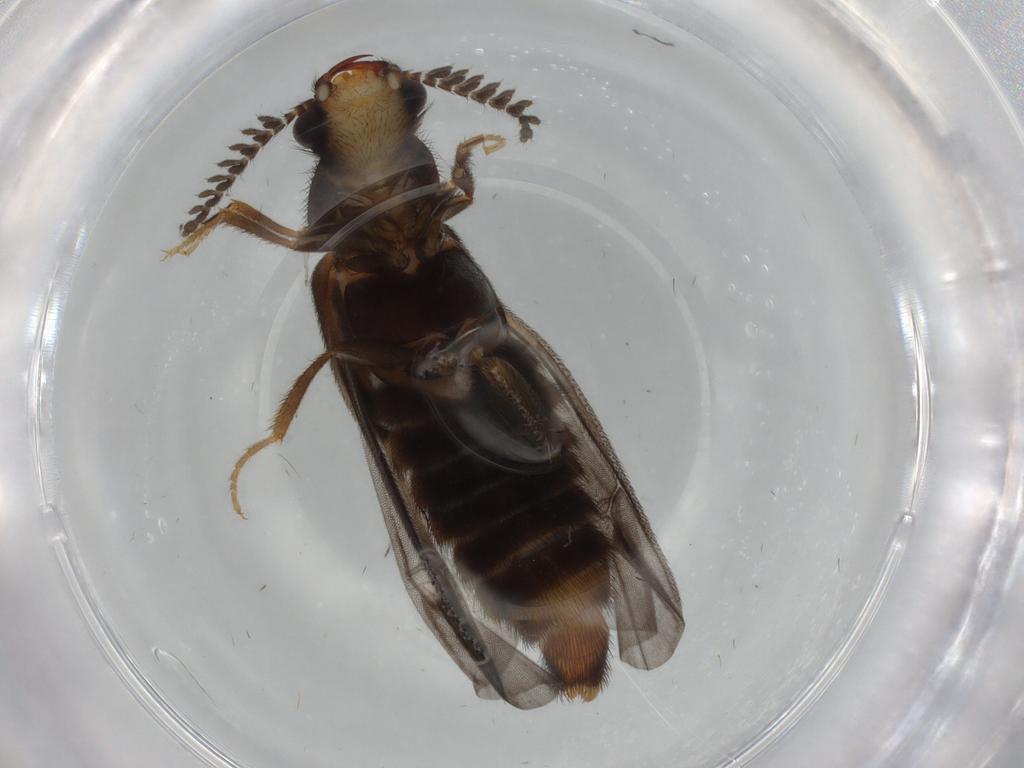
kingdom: Animalia
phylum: Arthropoda
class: Insecta
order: Coleoptera
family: Phengodidae
